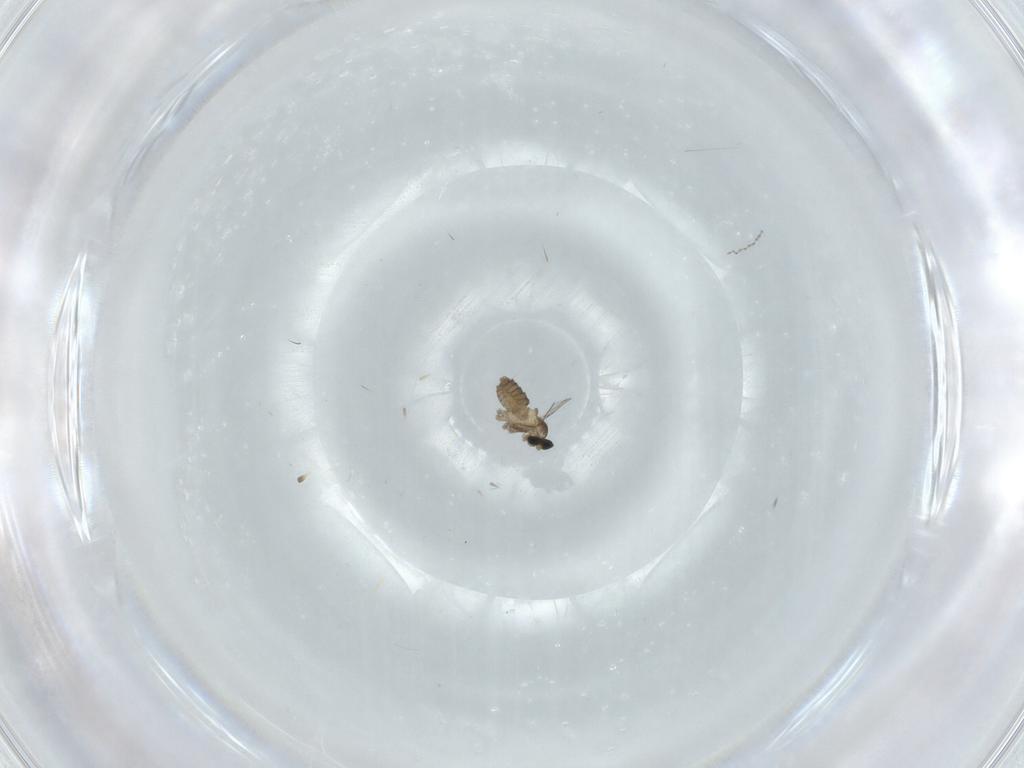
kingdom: Animalia
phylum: Arthropoda
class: Insecta
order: Diptera
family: Cecidomyiidae
